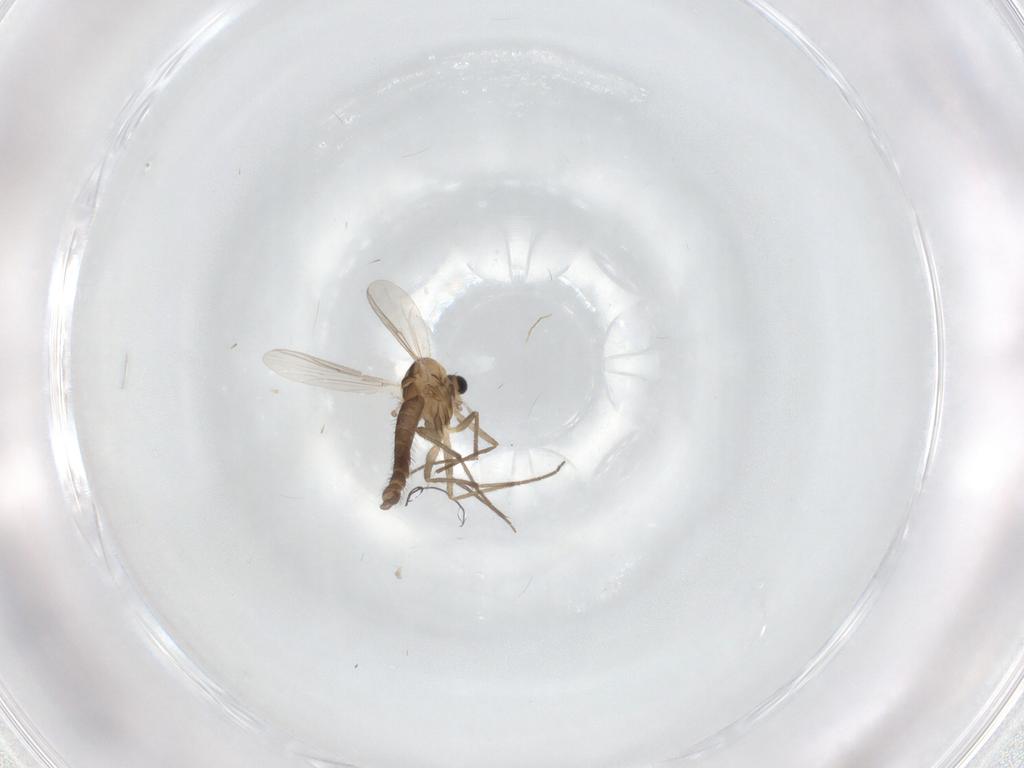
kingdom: Animalia
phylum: Arthropoda
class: Insecta
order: Diptera
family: Chironomidae
